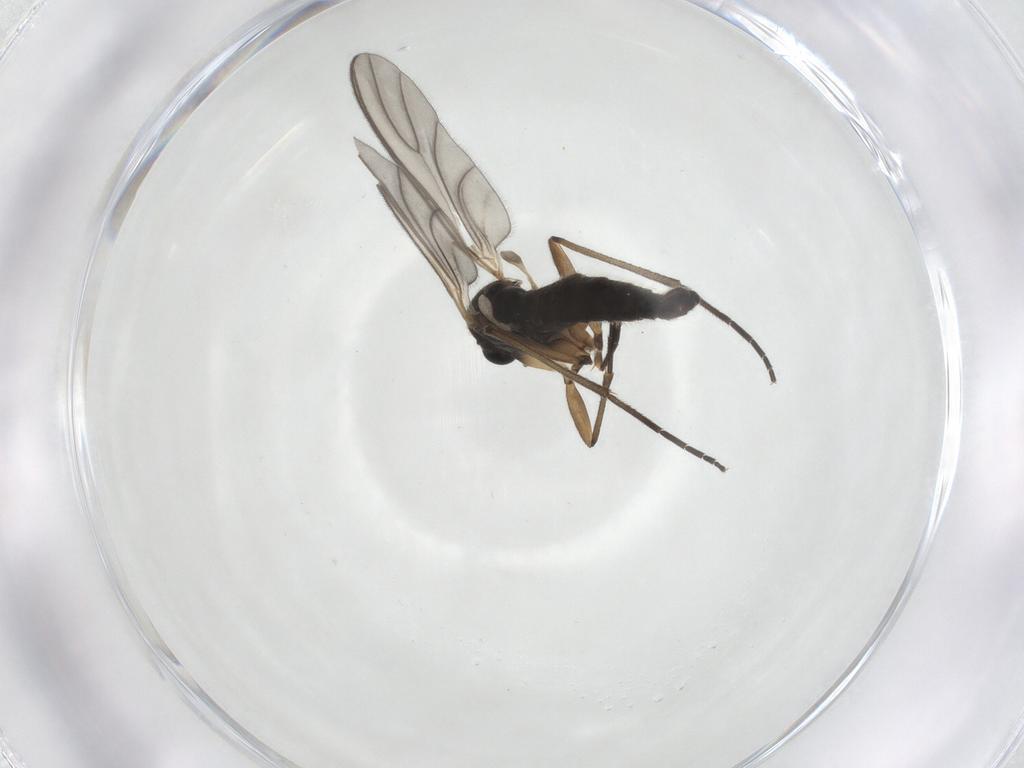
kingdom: Animalia
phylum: Arthropoda
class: Insecta
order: Diptera
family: Sciaridae
